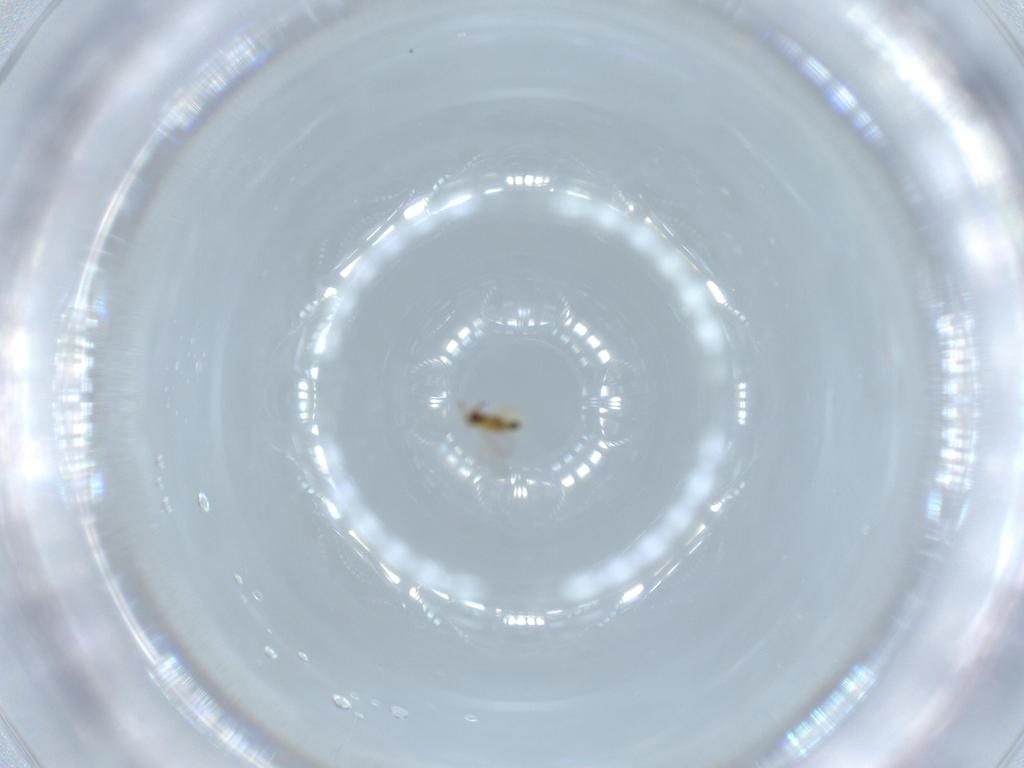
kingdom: Animalia
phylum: Arthropoda
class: Insecta
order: Hymenoptera
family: Aphelinidae
